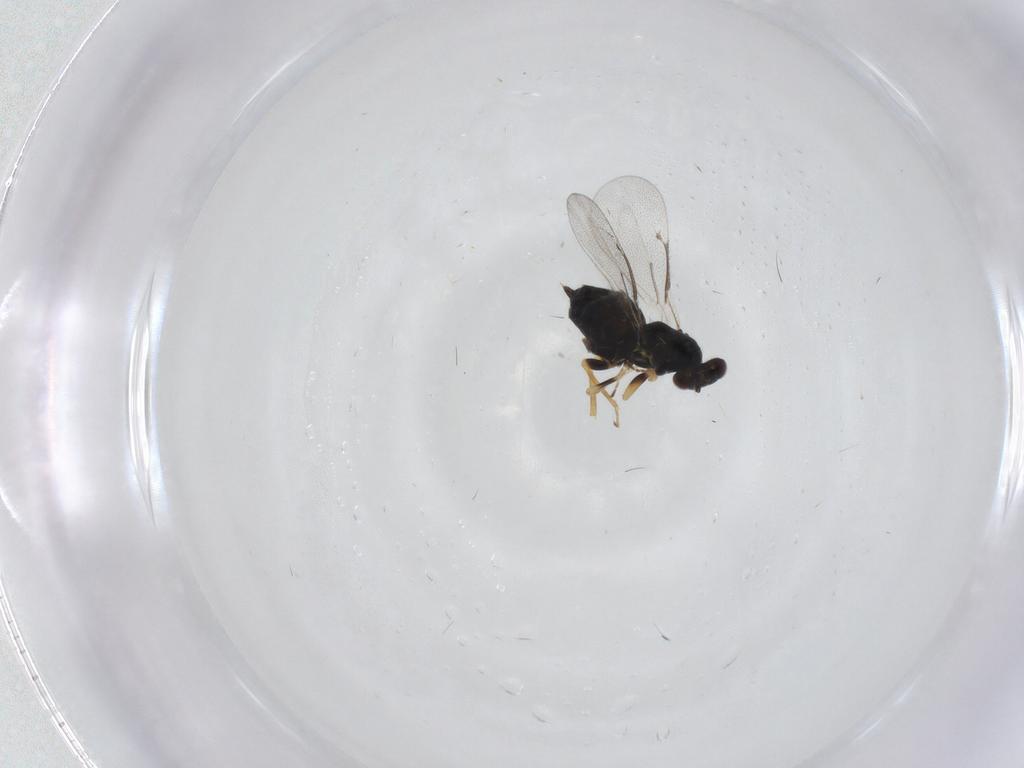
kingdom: Animalia
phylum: Arthropoda
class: Insecta
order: Hymenoptera
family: Eulophidae
